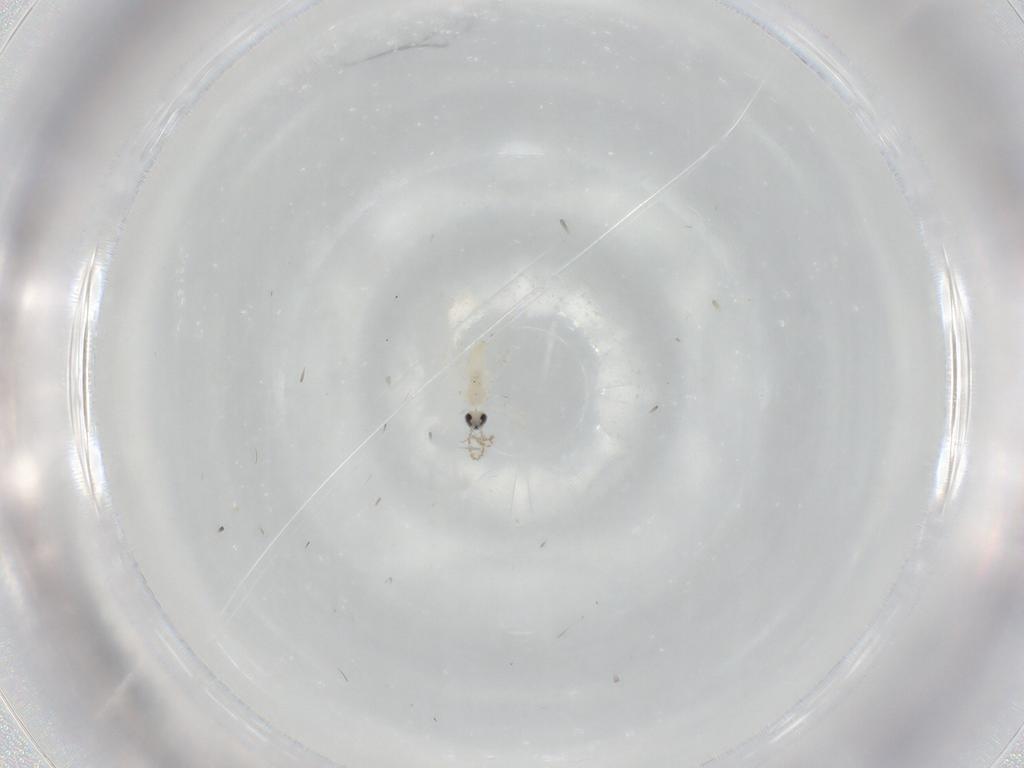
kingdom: Animalia
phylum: Arthropoda
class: Insecta
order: Diptera
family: Cecidomyiidae
